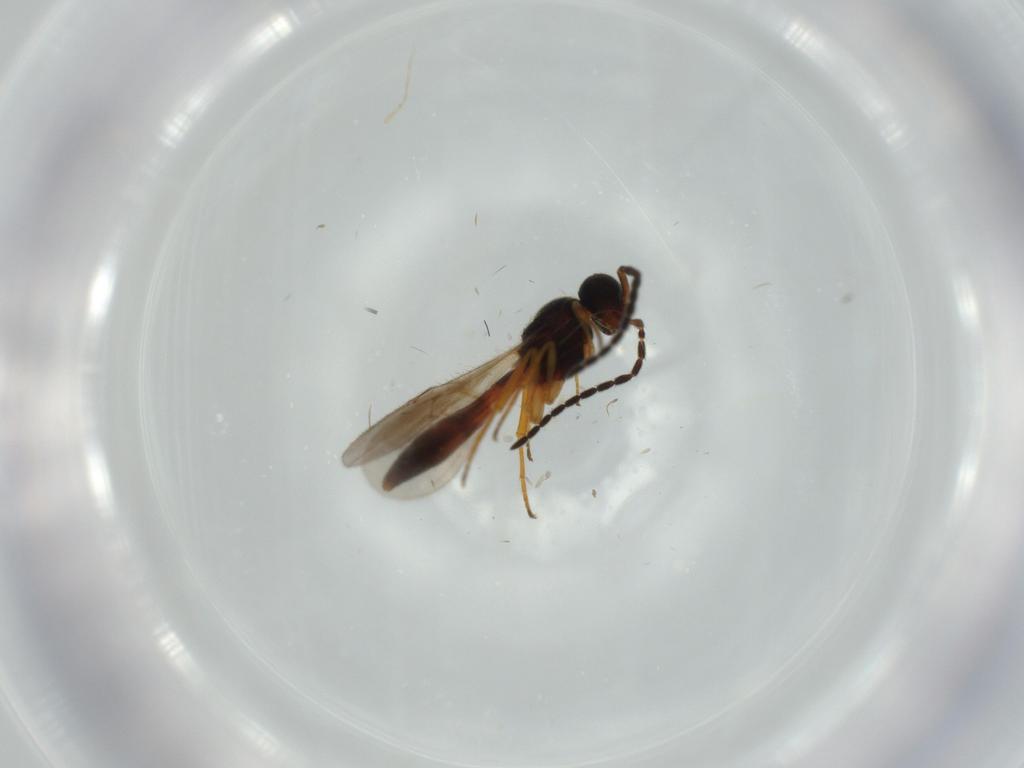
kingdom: Animalia
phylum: Arthropoda
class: Insecta
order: Hymenoptera
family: Scelionidae
